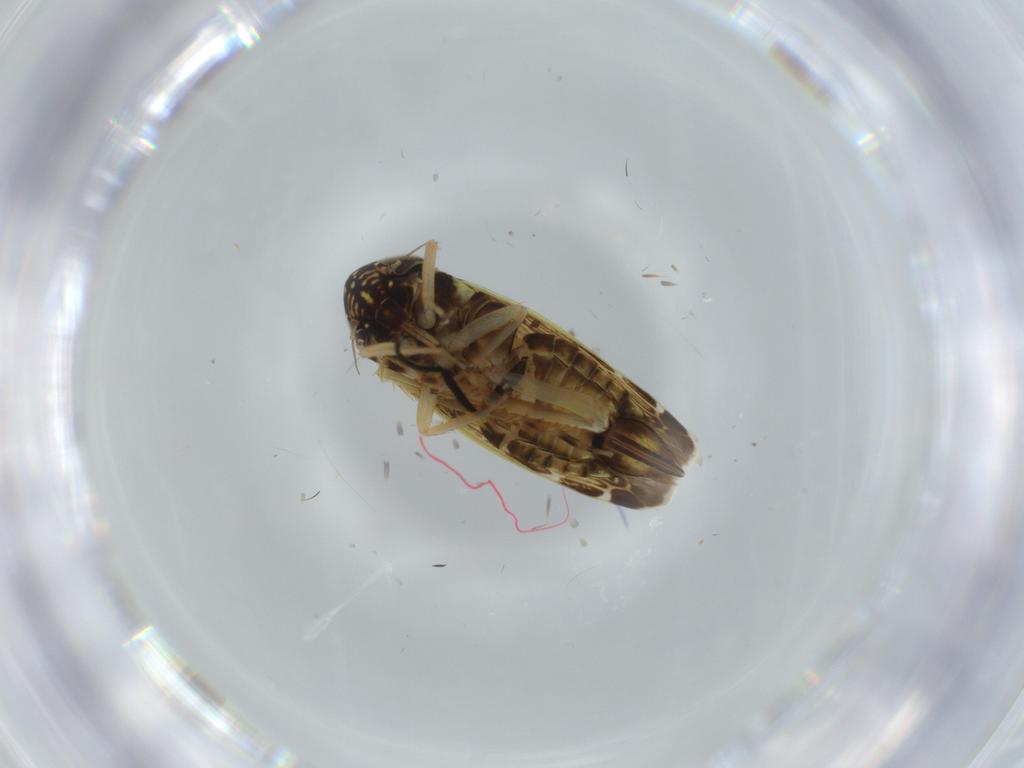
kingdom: Animalia
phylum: Arthropoda
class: Insecta
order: Hemiptera
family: Cicadellidae
